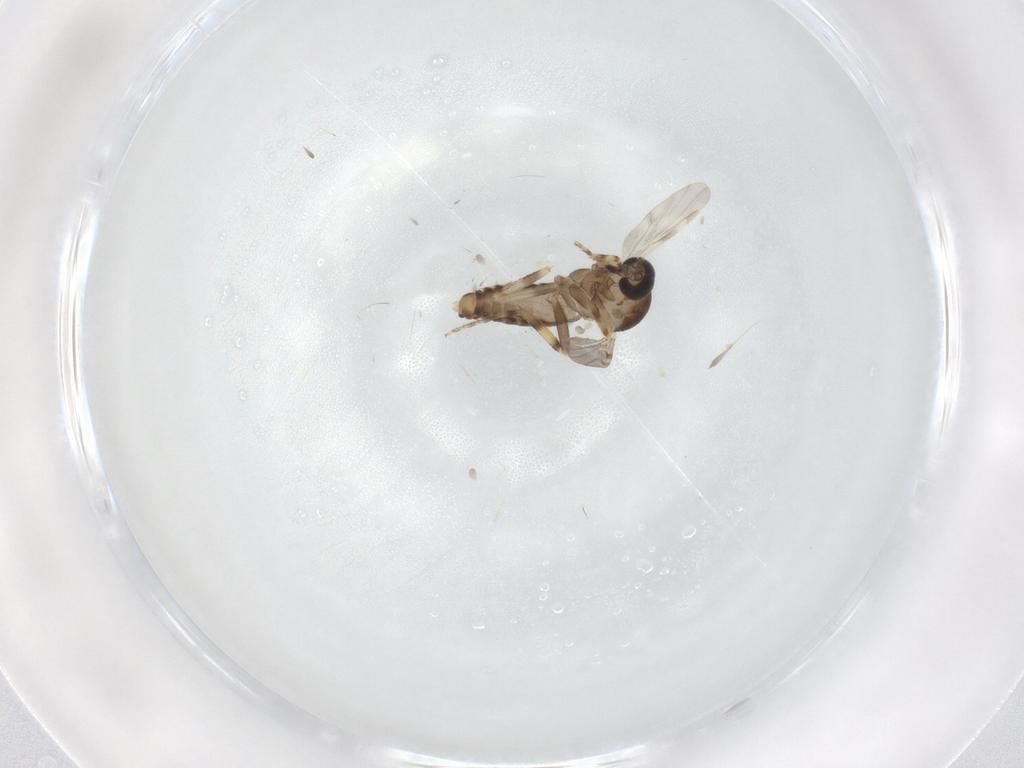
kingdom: Animalia
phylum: Arthropoda
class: Insecta
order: Diptera
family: Ceratopogonidae
